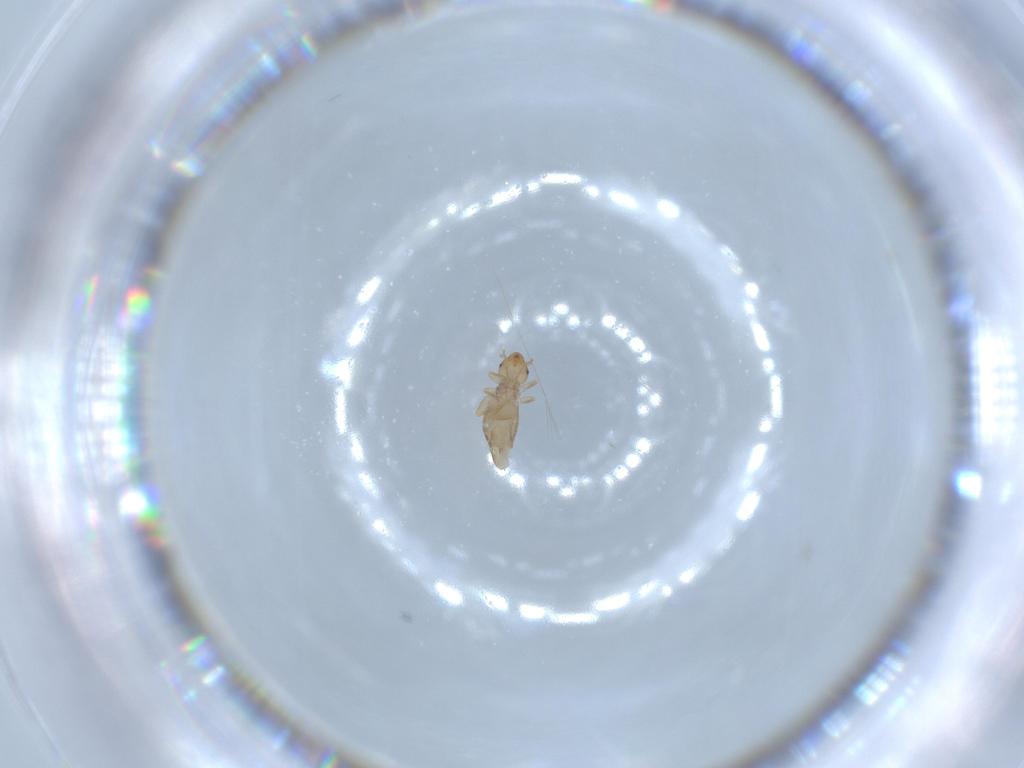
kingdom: Animalia
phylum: Arthropoda
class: Insecta
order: Psocodea
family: Liposcelididae
